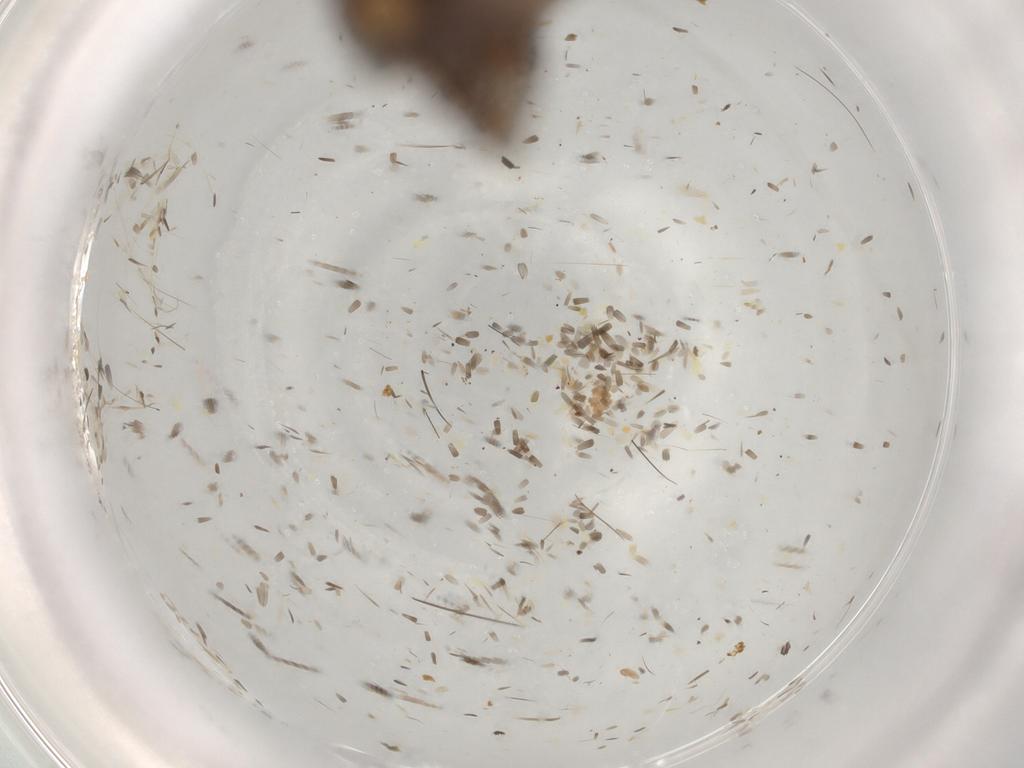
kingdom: Animalia
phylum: Arthropoda
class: Insecta
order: Lepidoptera
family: Gelechiidae
